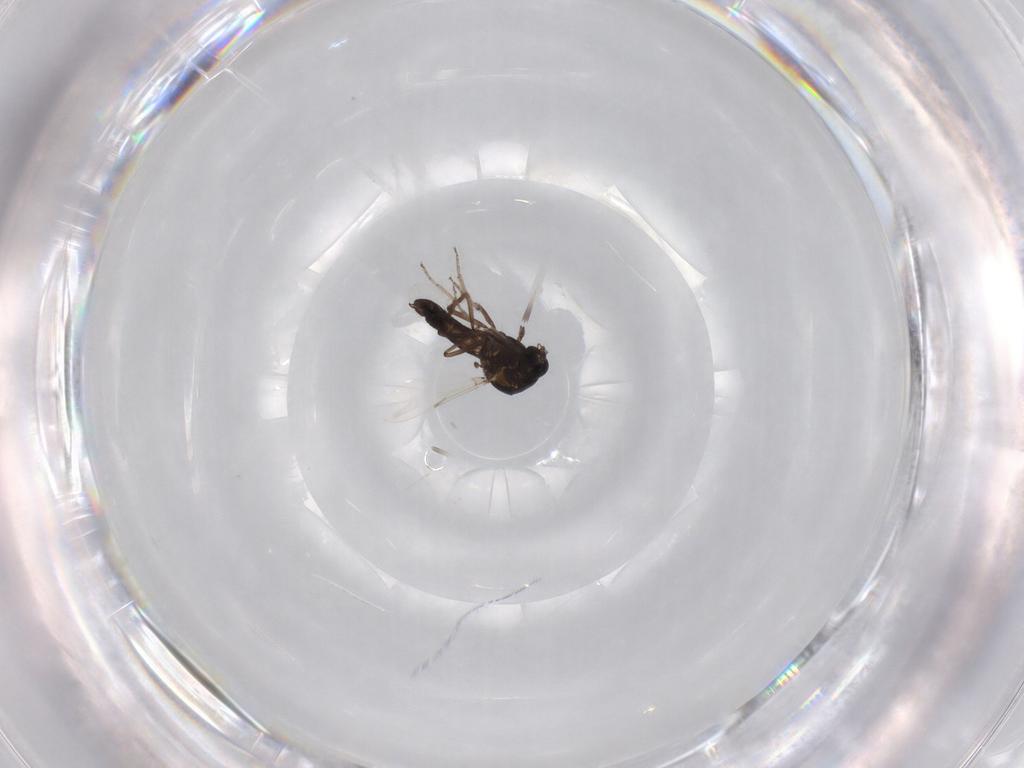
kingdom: Animalia
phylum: Arthropoda
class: Insecta
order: Diptera
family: Ceratopogonidae
